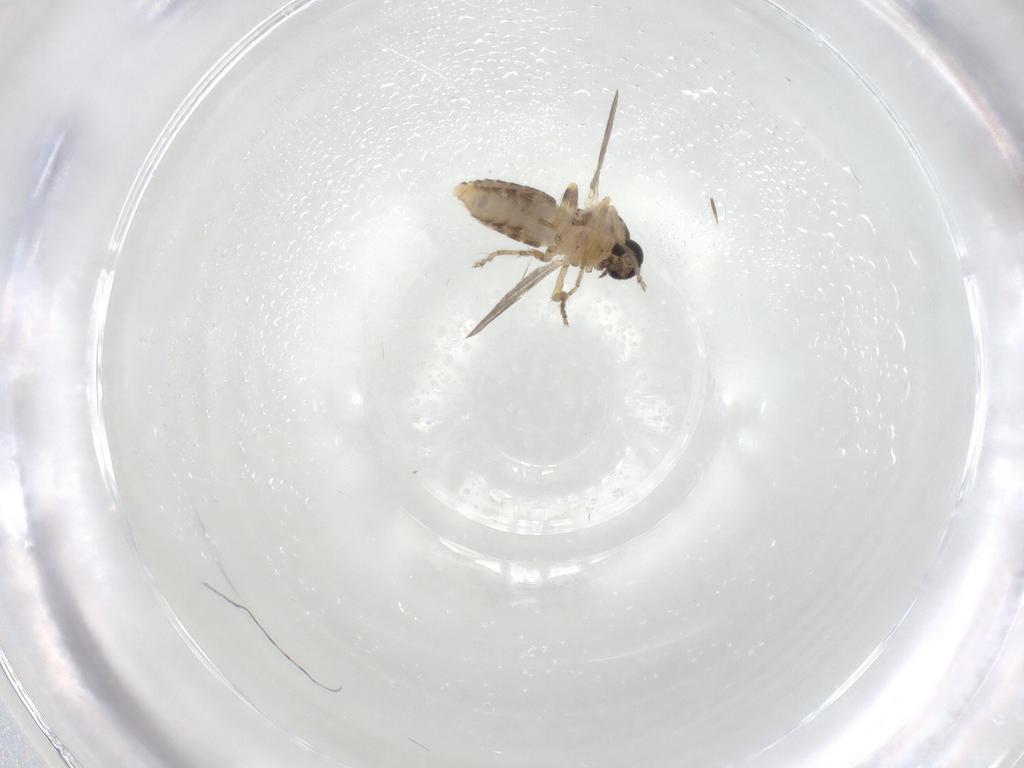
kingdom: Animalia
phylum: Arthropoda
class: Insecta
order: Diptera
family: Ceratopogonidae
